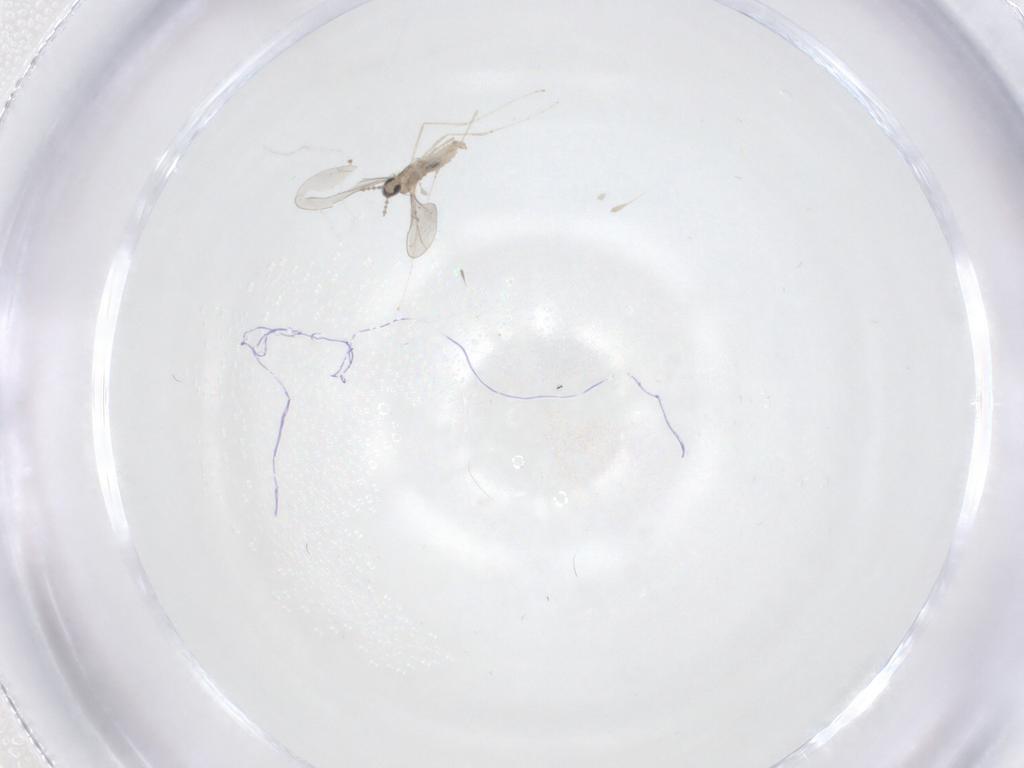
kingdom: Animalia
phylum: Arthropoda
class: Insecta
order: Diptera
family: Cecidomyiidae
